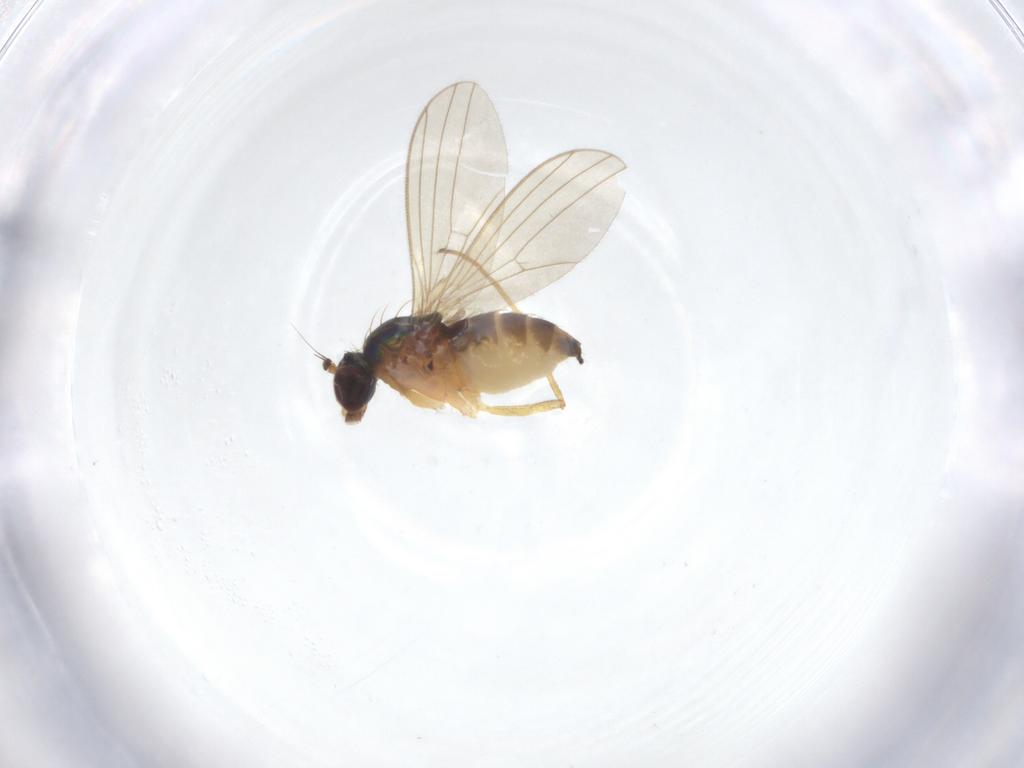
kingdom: Animalia
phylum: Arthropoda
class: Insecta
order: Diptera
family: Dolichopodidae
